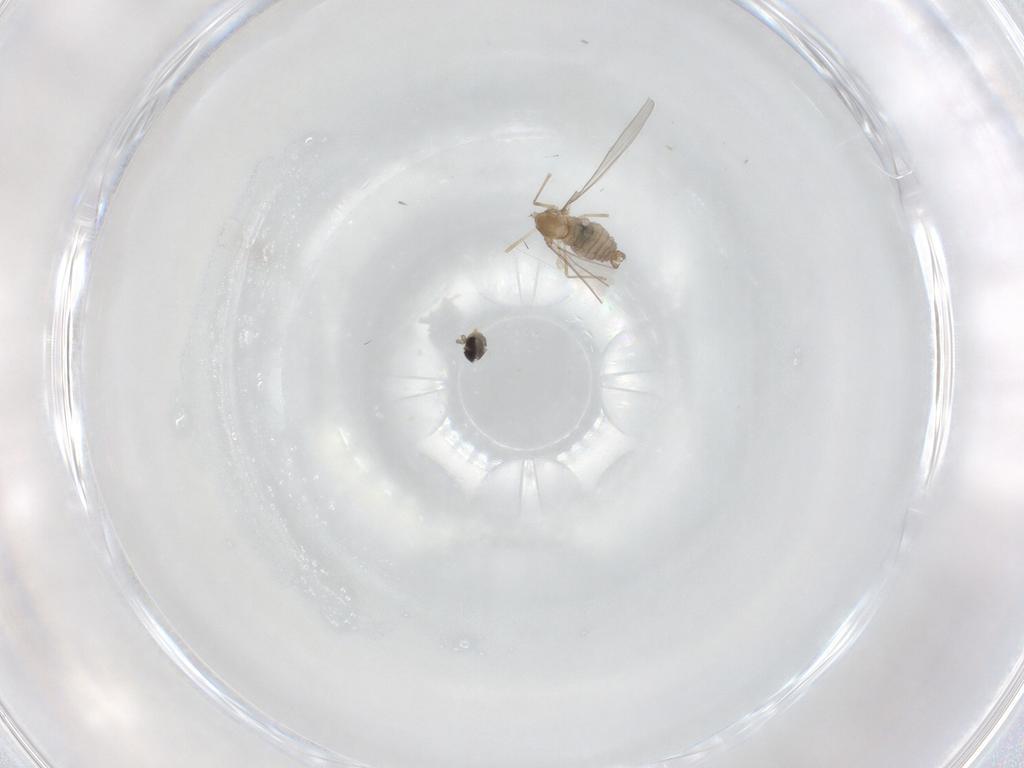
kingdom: Animalia
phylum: Arthropoda
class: Insecta
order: Diptera
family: Cecidomyiidae
